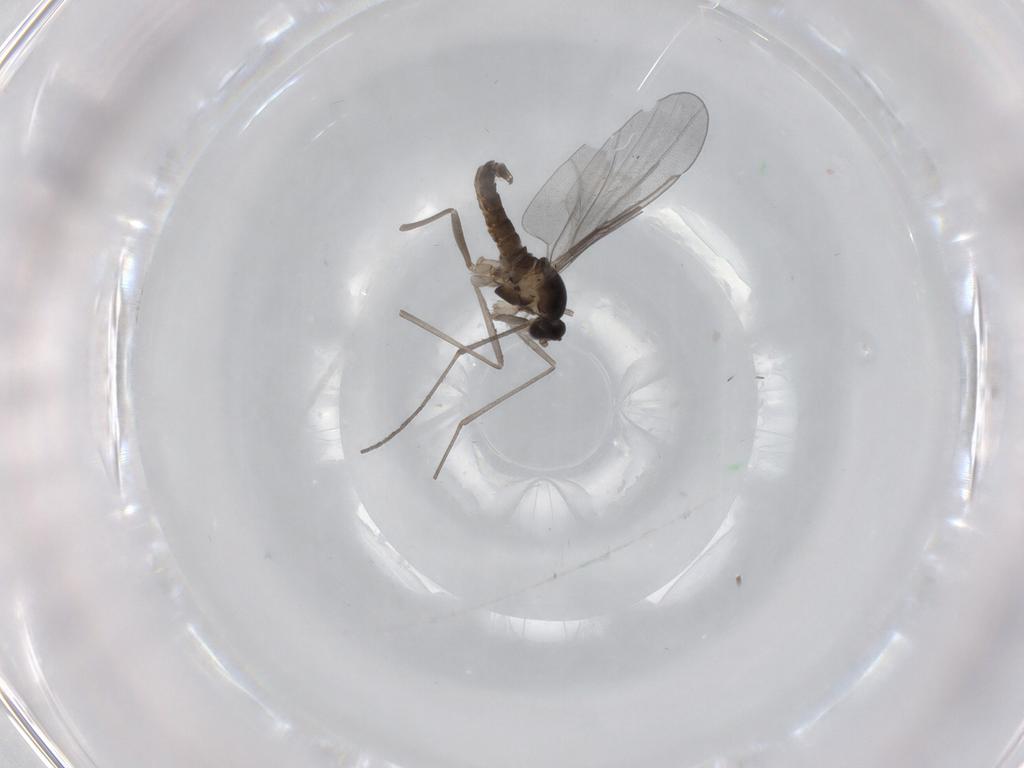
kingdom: Animalia
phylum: Arthropoda
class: Insecta
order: Diptera
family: Cecidomyiidae
